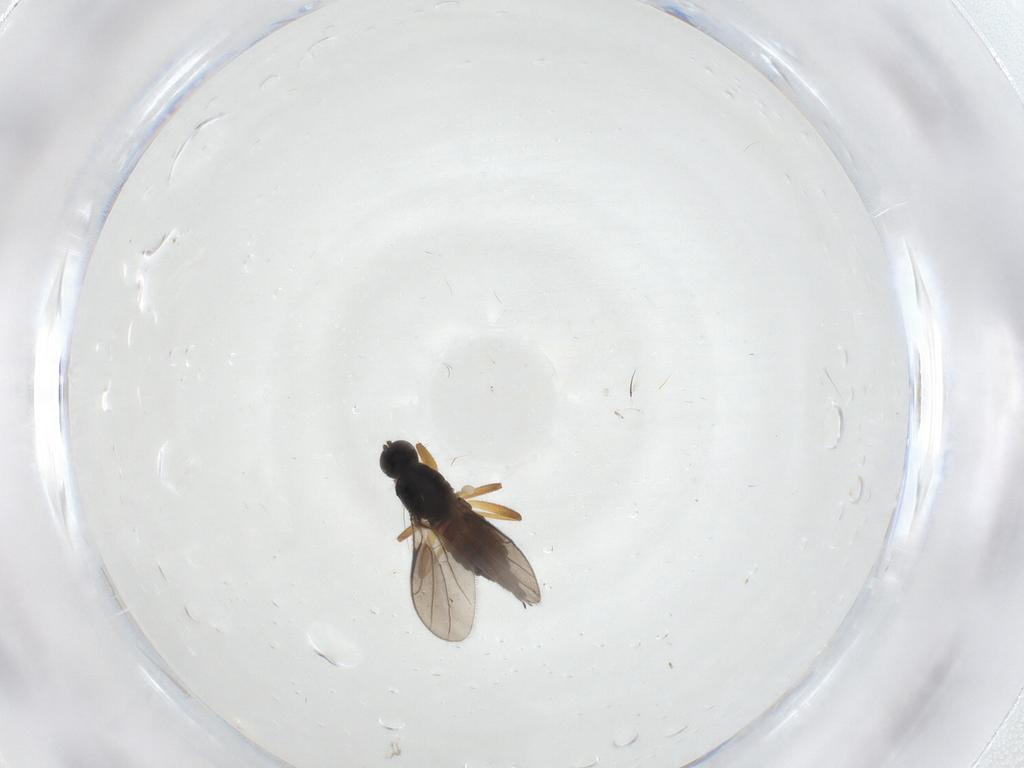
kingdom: Animalia
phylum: Arthropoda
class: Insecta
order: Diptera
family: Hybotidae
